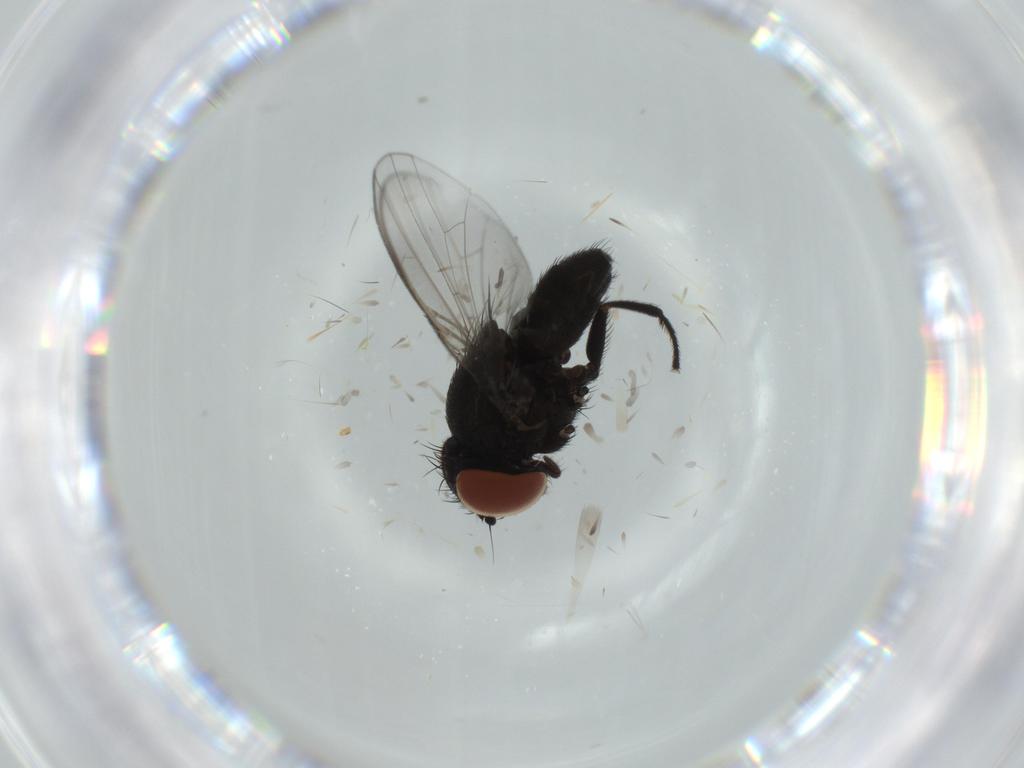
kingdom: Animalia
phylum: Arthropoda
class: Insecta
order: Diptera
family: Milichiidae
